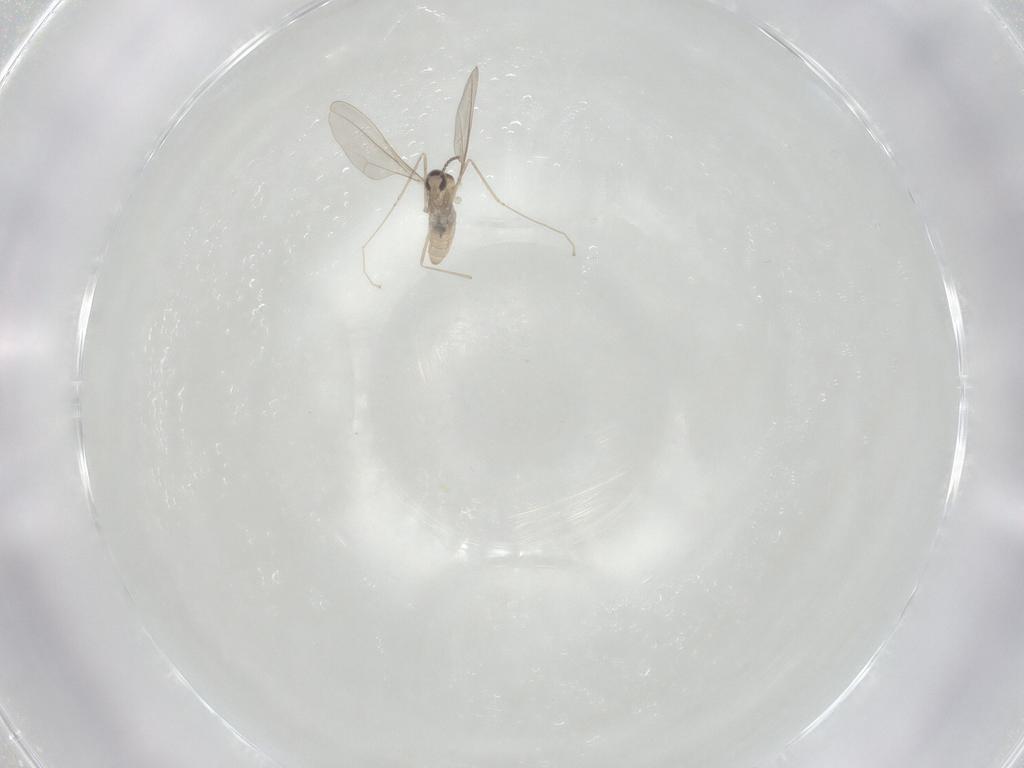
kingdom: Animalia
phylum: Arthropoda
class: Insecta
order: Diptera
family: Cecidomyiidae
